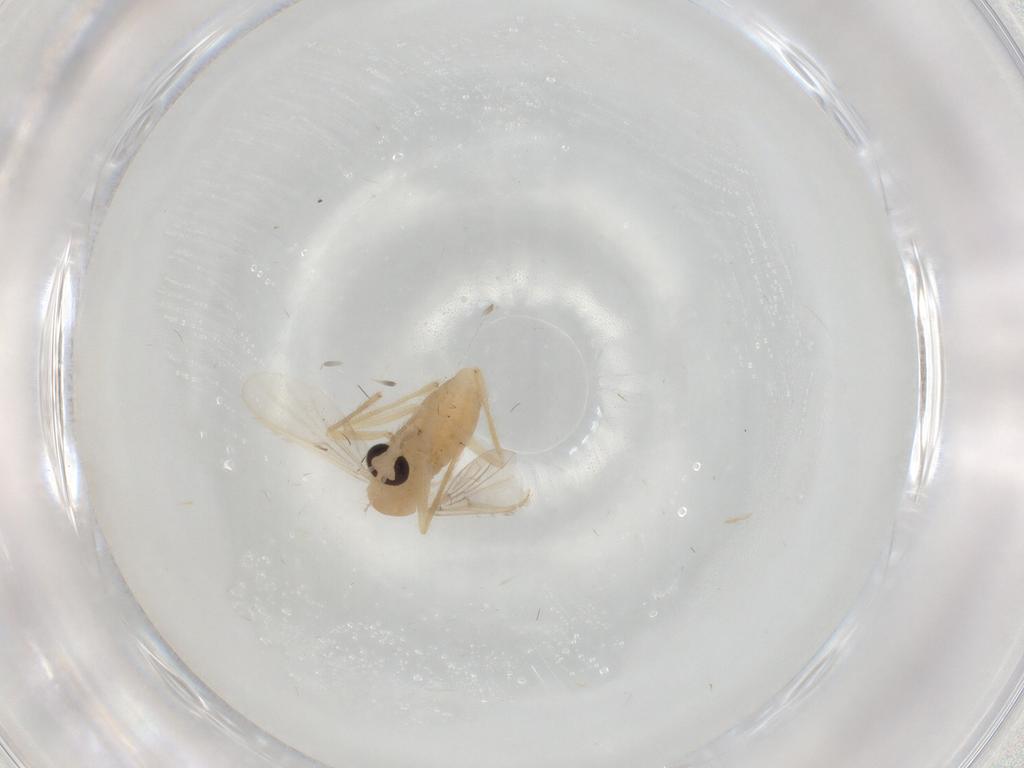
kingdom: Animalia
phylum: Arthropoda
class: Insecta
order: Diptera
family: Chironomidae
